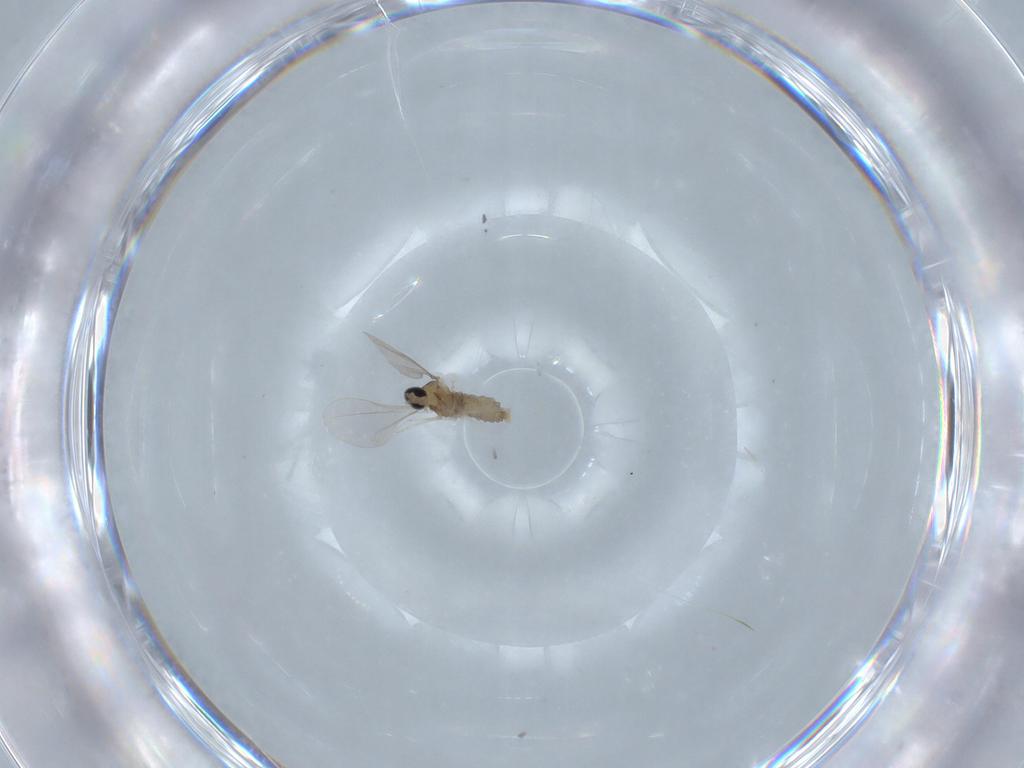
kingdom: Animalia
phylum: Arthropoda
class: Insecta
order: Diptera
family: Cecidomyiidae
